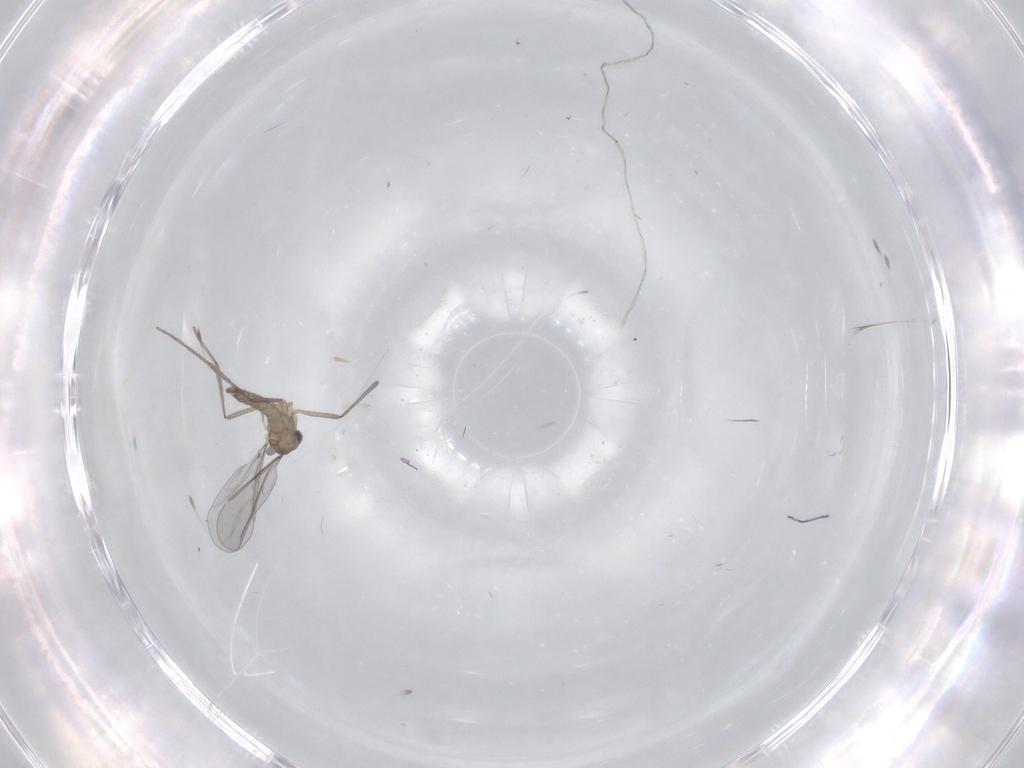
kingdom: Animalia
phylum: Arthropoda
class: Insecta
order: Diptera
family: Cecidomyiidae
